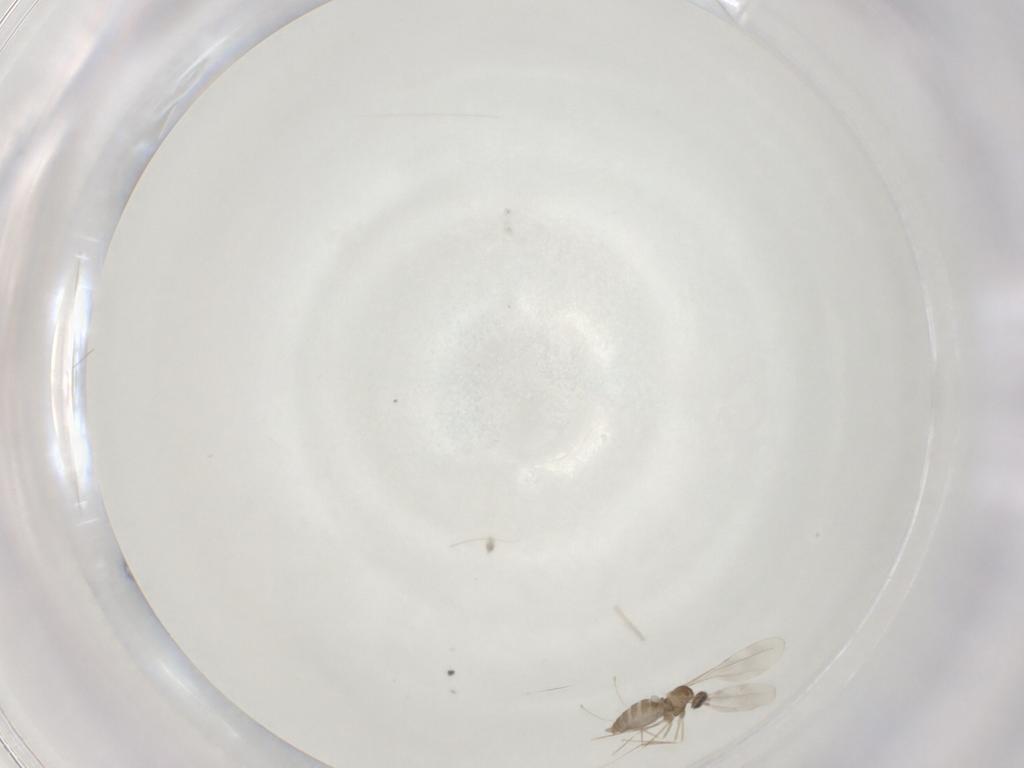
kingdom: Animalia
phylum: Arthropoda
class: Insecta
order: Diptera
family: Cecidomyiidae
